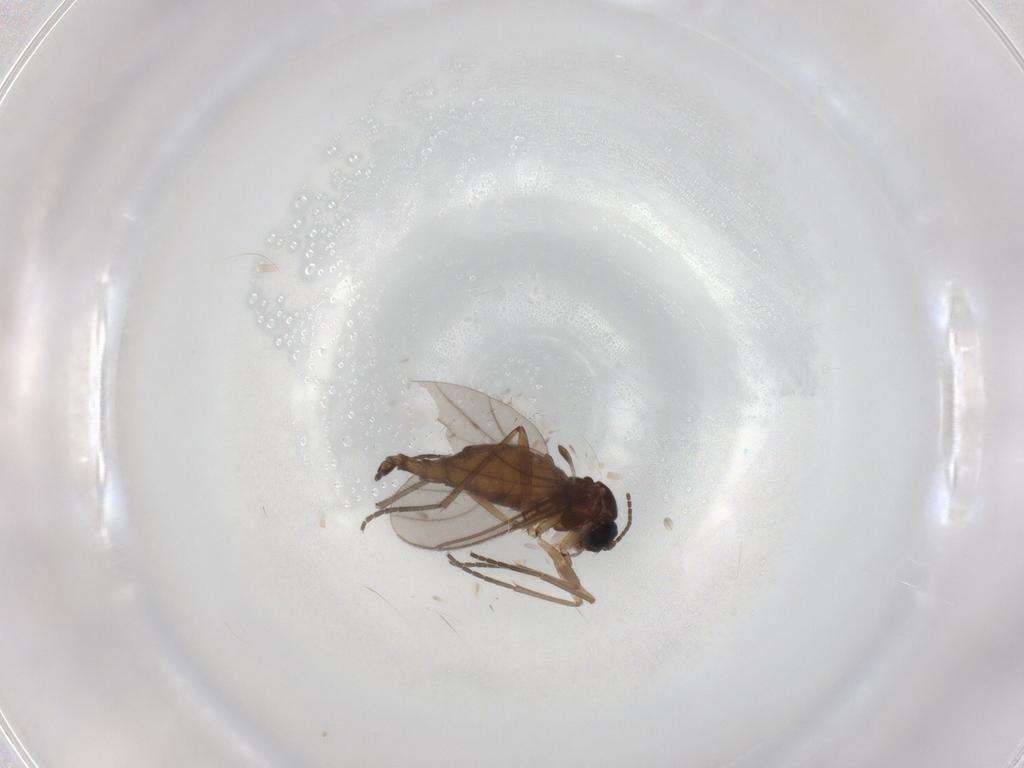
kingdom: Animalia
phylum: Arthropoda
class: Insecta
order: Diptera
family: Sciaridae
